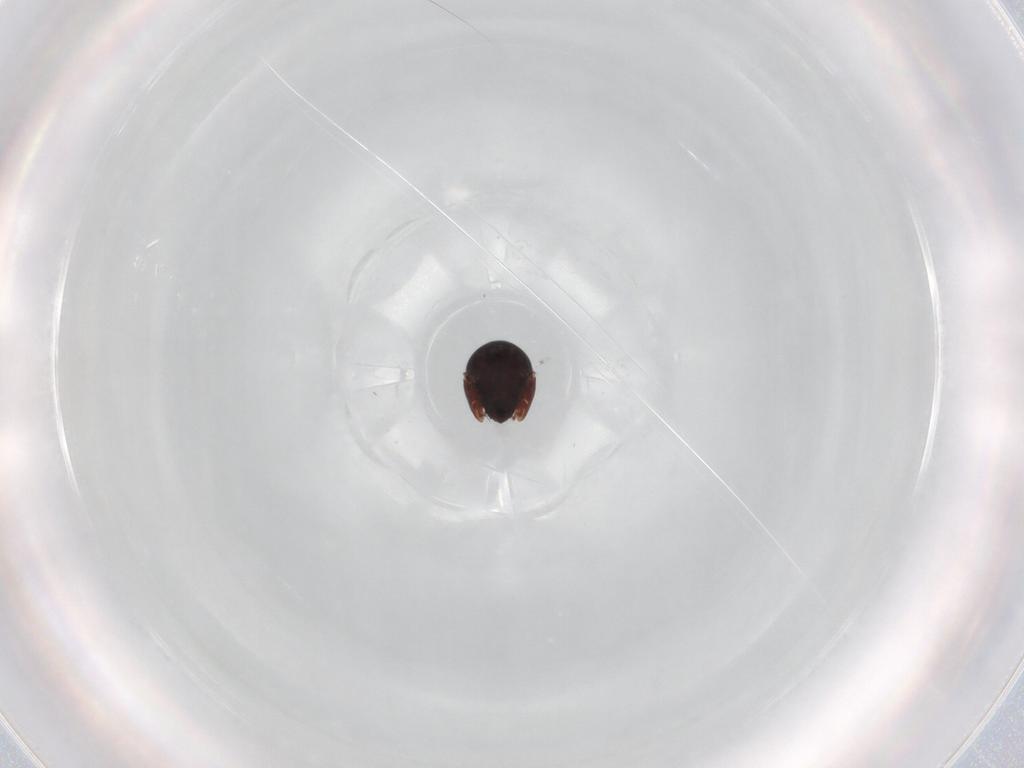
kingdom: Animalia
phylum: Arthropoda
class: Arachnida
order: Sarcoptiformes
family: Ceratozetidae
